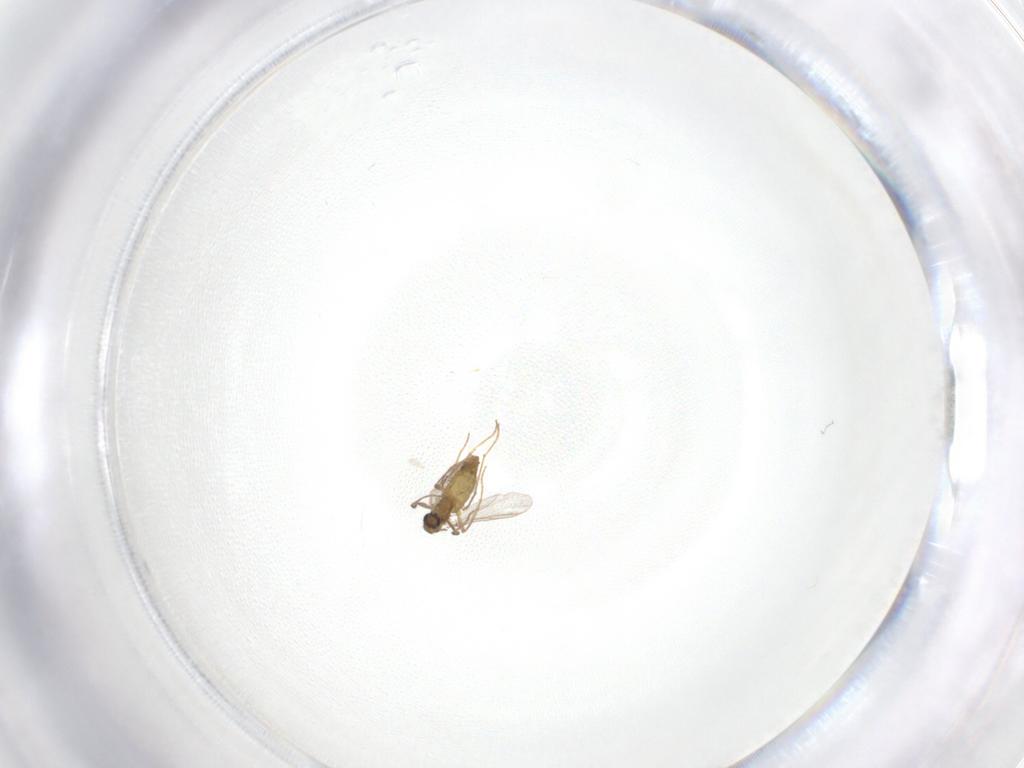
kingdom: Animalia
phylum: Arthropoda
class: Insecta
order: Diptera
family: Chironomidae
